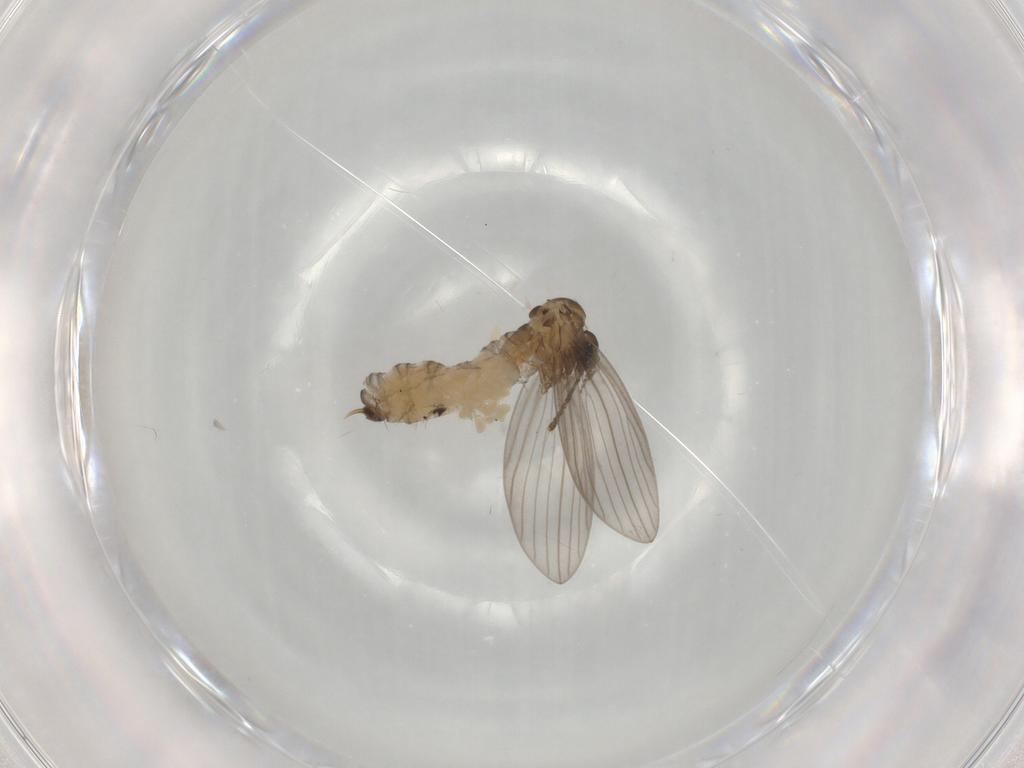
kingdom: Animalia
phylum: Arthropoda
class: Insecta
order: Diptera
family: Psychodidae
